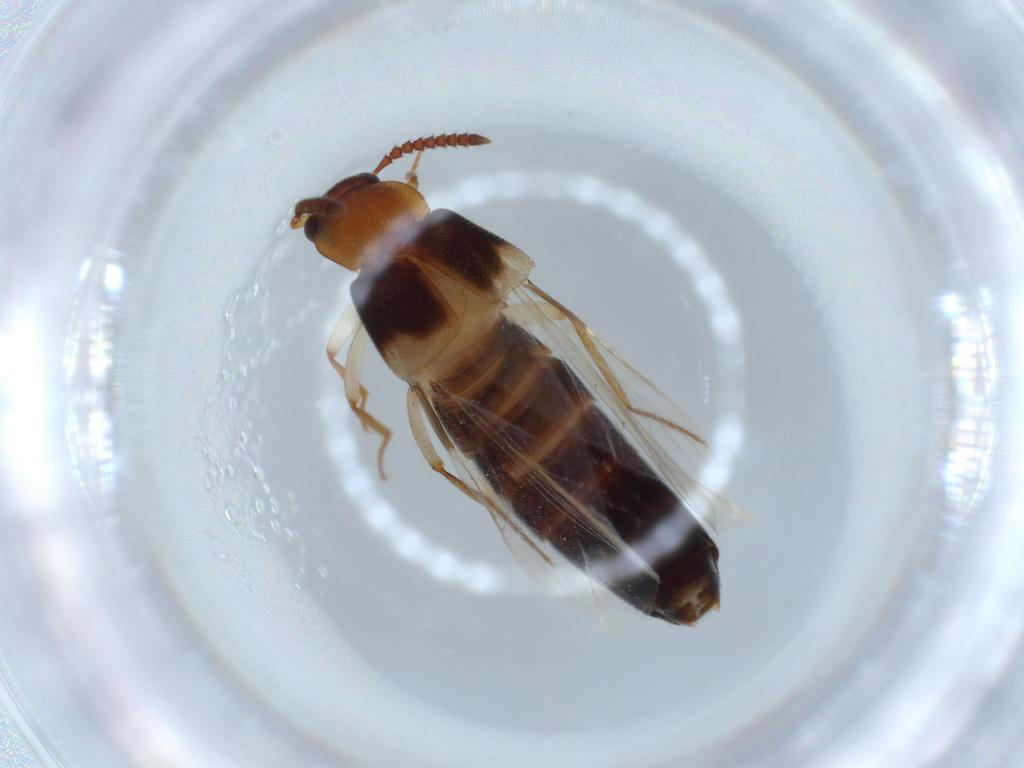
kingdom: Animalia
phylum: Arthropoda
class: Insecta
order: Coleoptera
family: Staphylinidae
